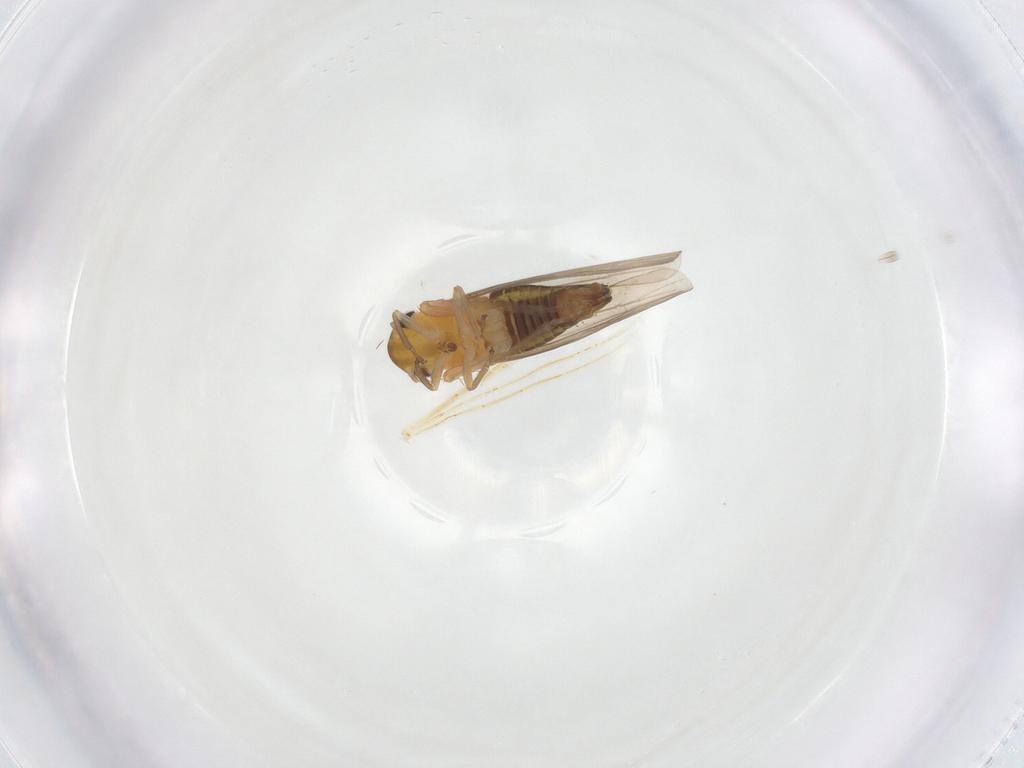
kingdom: Animalia
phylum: Arthropoda
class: Insecta
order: Hemiptera
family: Cicadellidae
